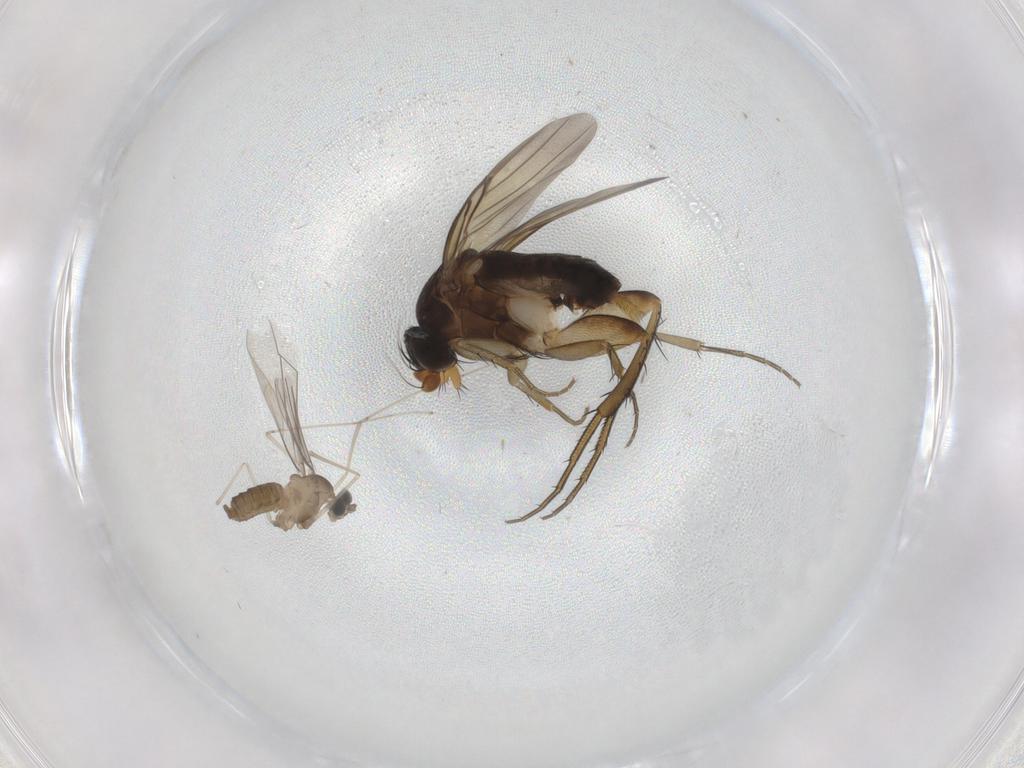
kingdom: Animalia
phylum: Arthropoda
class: Insecta
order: Diptera
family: Phoridae
